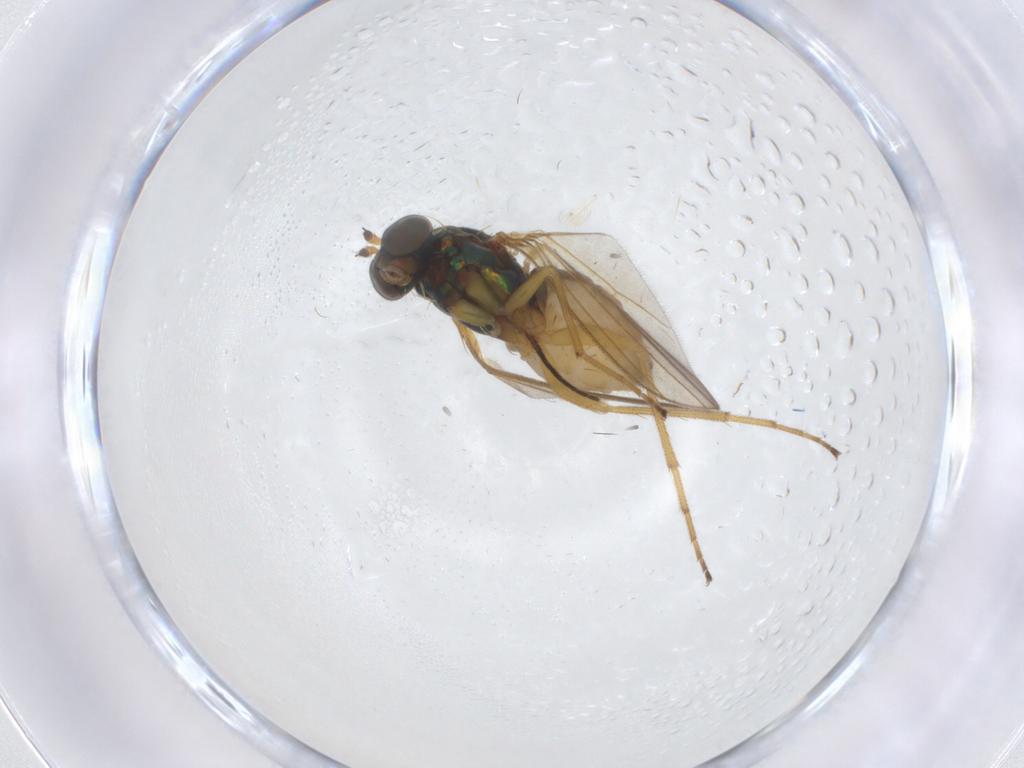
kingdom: Animalia
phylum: Arthropoda
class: Insecta
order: Diptera
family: Dolichopodidae
